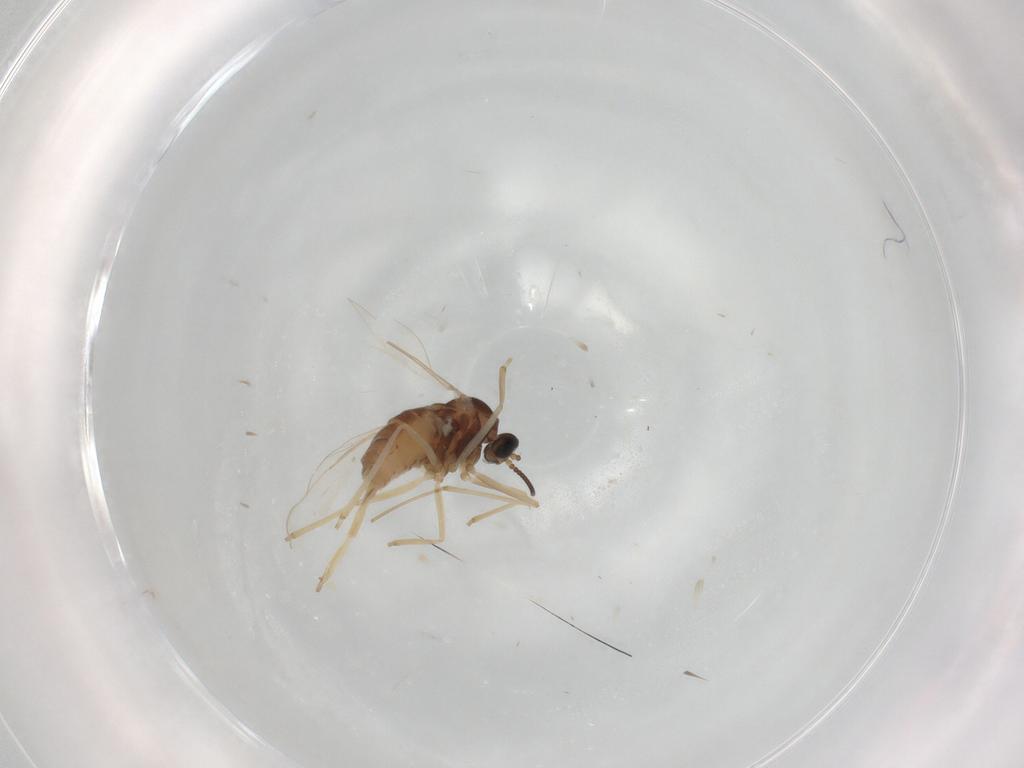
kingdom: Animalia
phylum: Arthropoda
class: Insecta
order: Diptera
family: Cecidomyiidae
